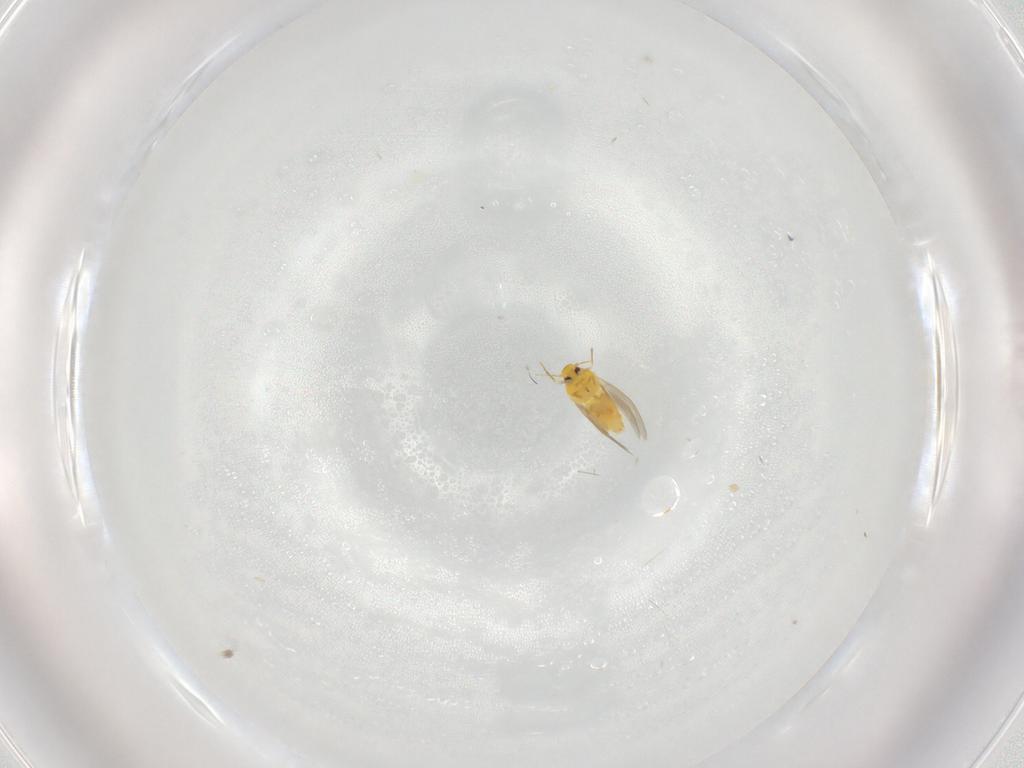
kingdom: Animalia
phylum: Arthropoda
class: Insecta
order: Hemiptera
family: Aleyrodidae
